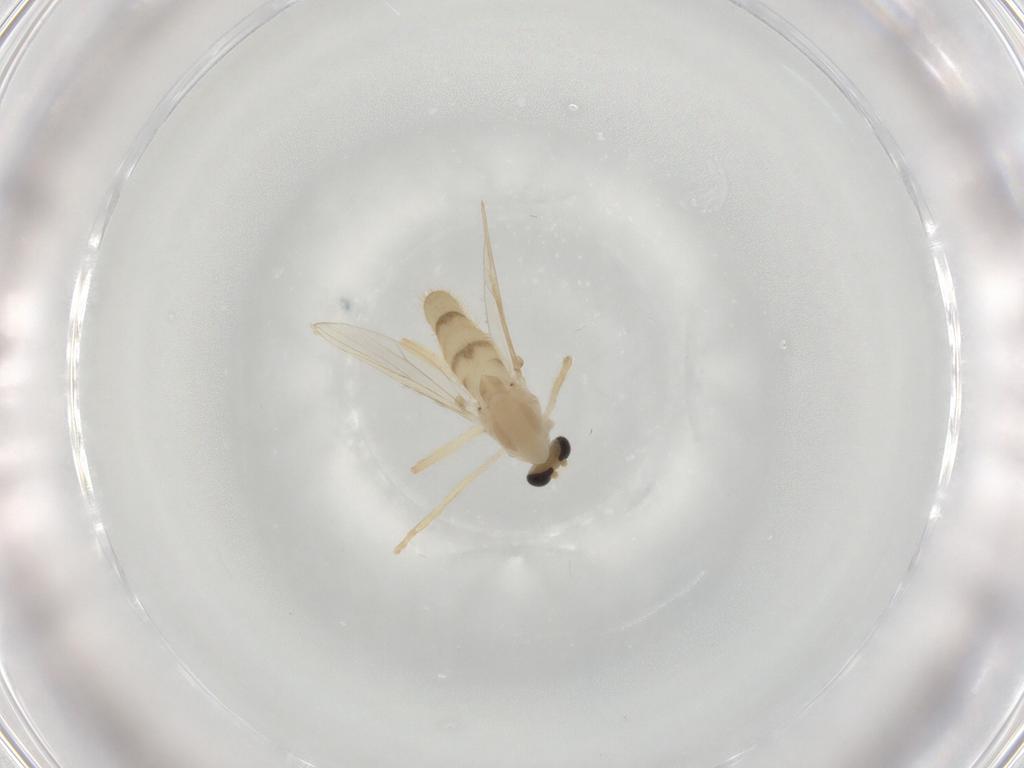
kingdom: Animalia
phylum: Arthropoda
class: Insecta
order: Diptera
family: Chironomidae
